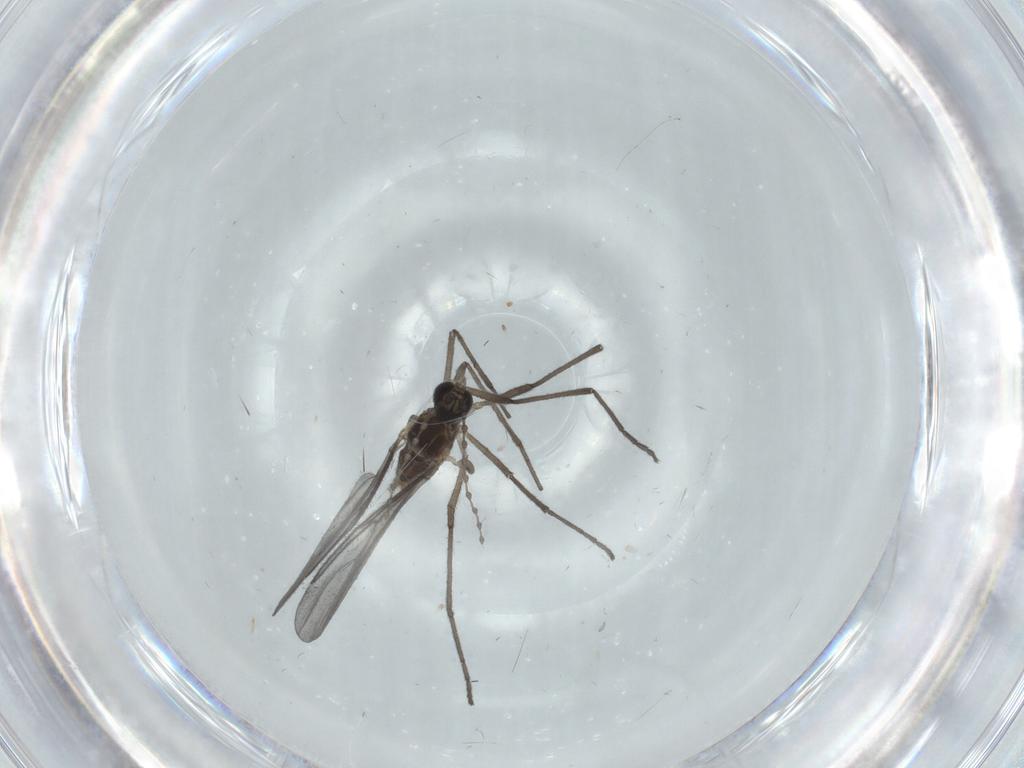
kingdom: Animalia
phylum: Arthropoda
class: Insecta
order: Diptera
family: Cecidomyiidae
